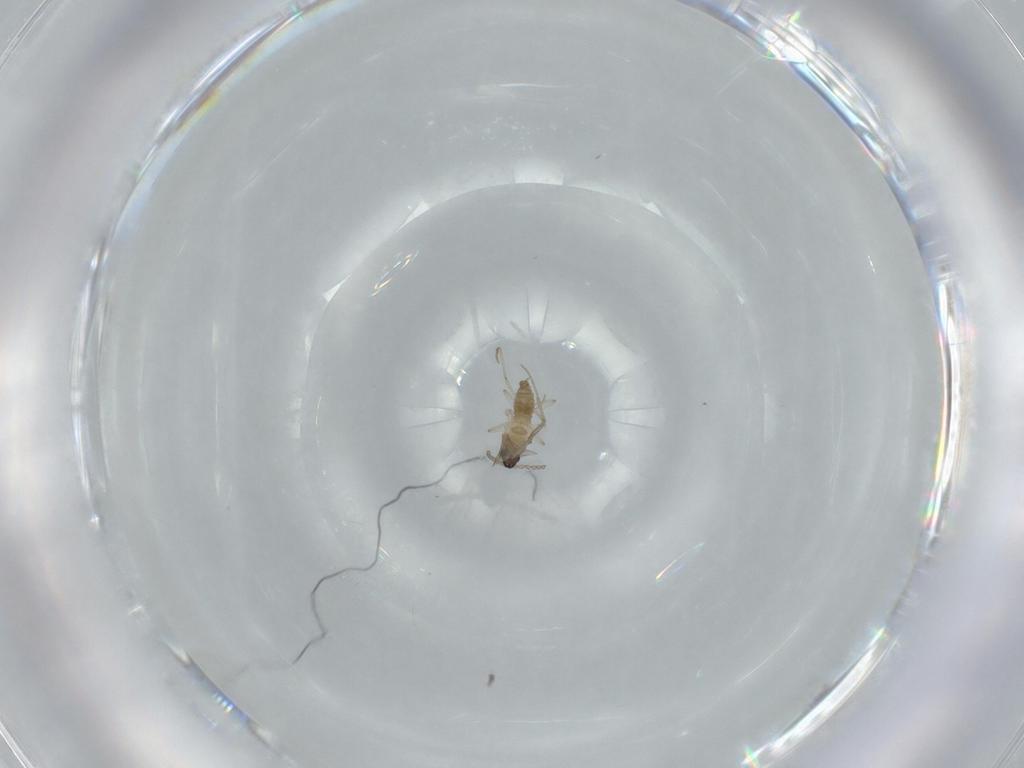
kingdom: Animalia
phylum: Arthropoda
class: Insecta
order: Diptera
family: Cecidomyiidae
